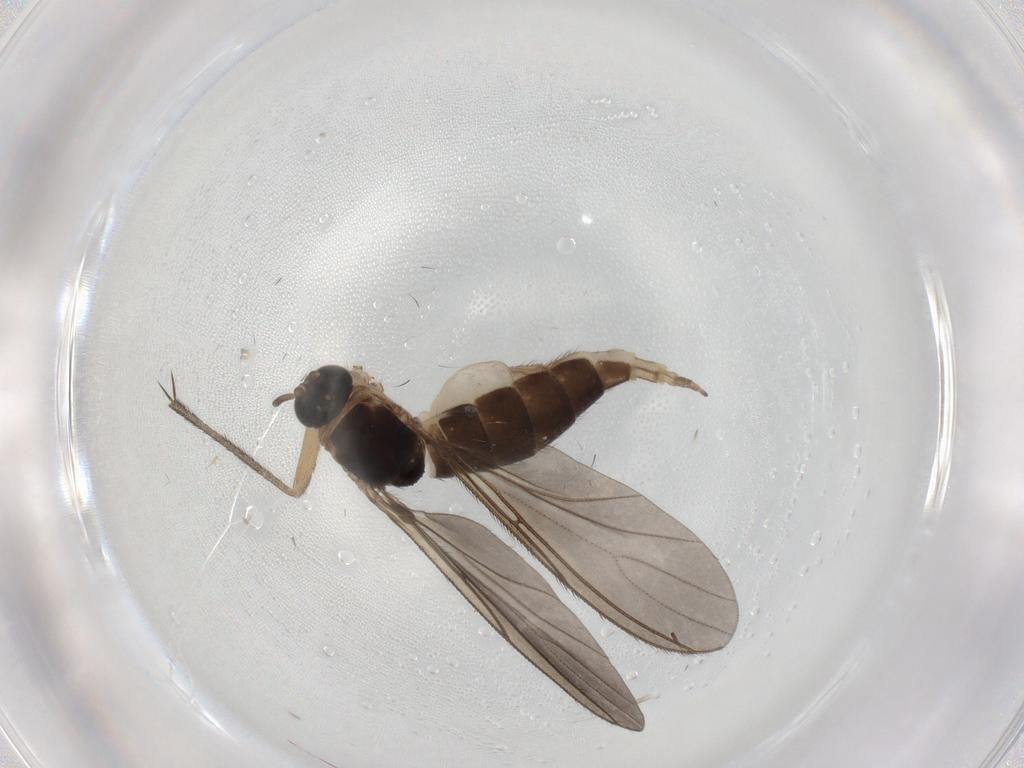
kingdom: Animalia
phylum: Arthropoda
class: Insecta
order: Diptera
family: Sciaridae
